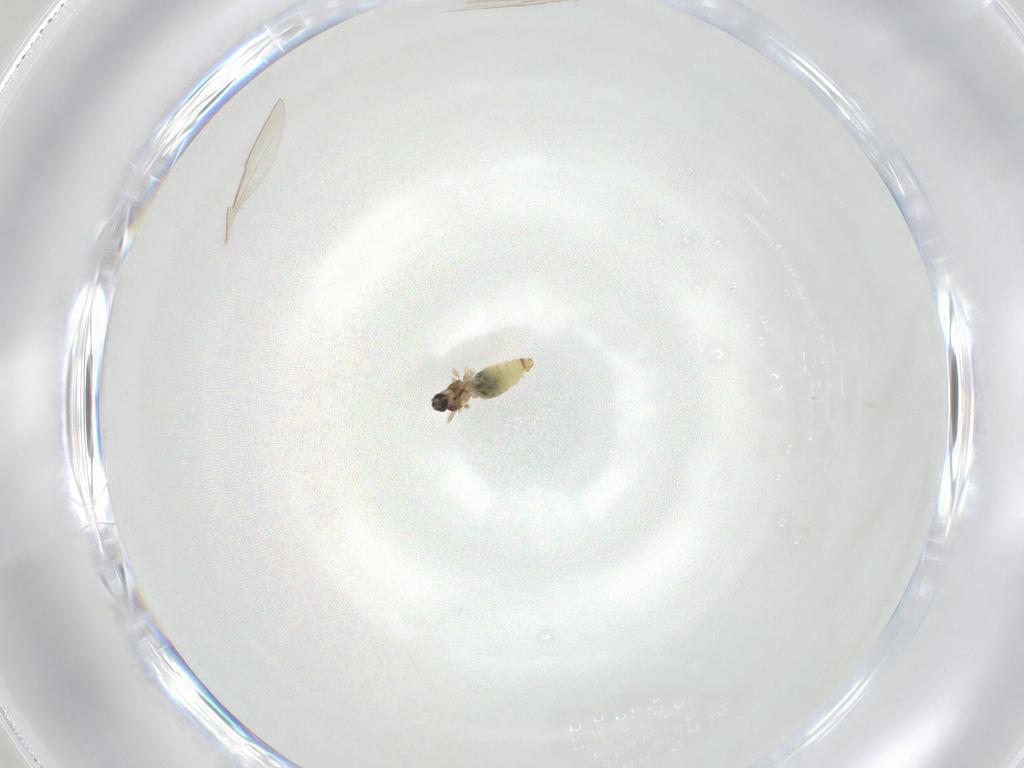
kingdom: Animalia
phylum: Arthropoda
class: Insecta
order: Diptera
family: Cecidomyiidae
